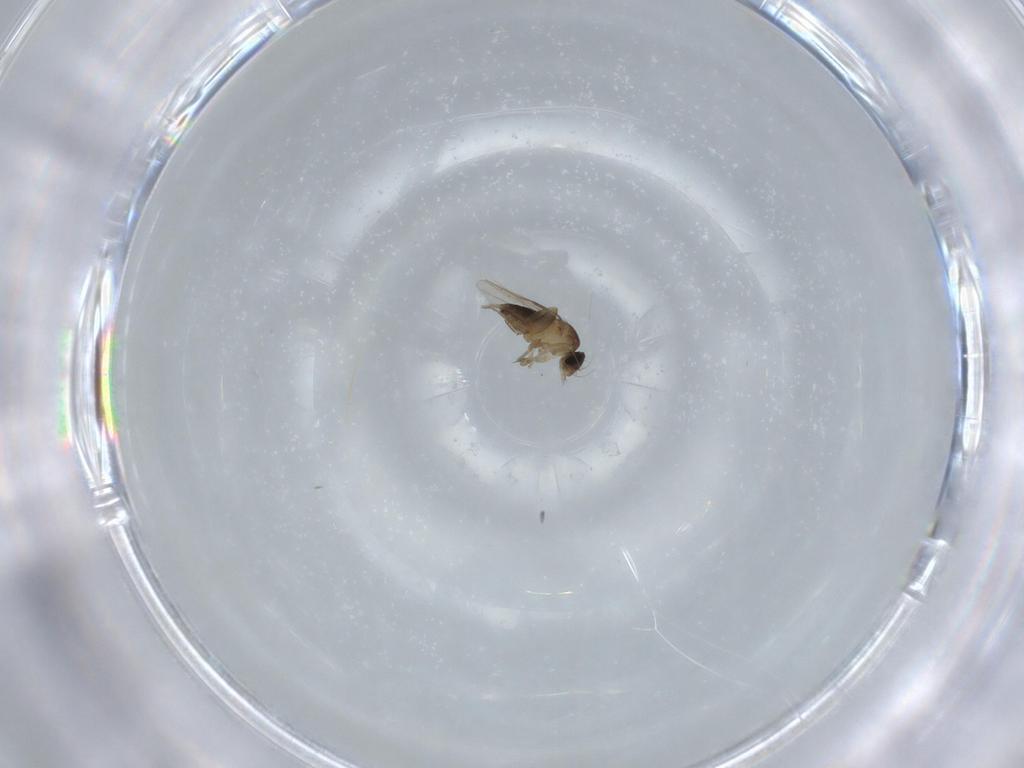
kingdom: Animalia
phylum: Arthropoda
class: Insecta
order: Diptera
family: Phoridae
